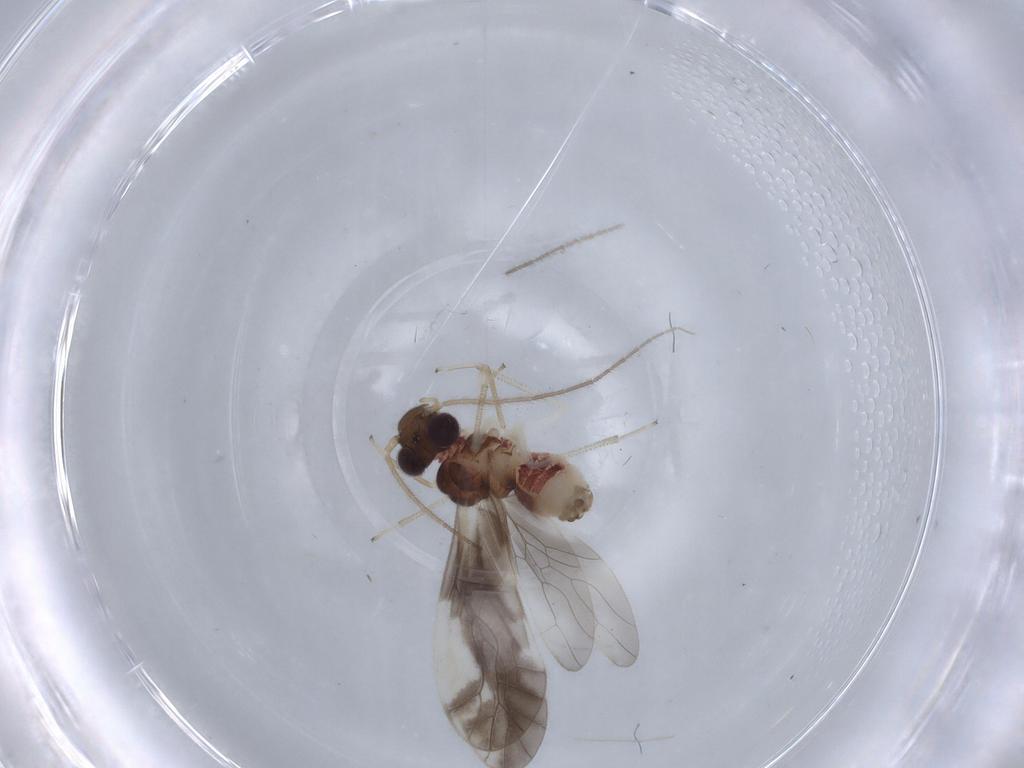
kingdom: Animalia
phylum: Arthropoda
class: Insecta
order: Psocodea
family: Caeciliusidae
